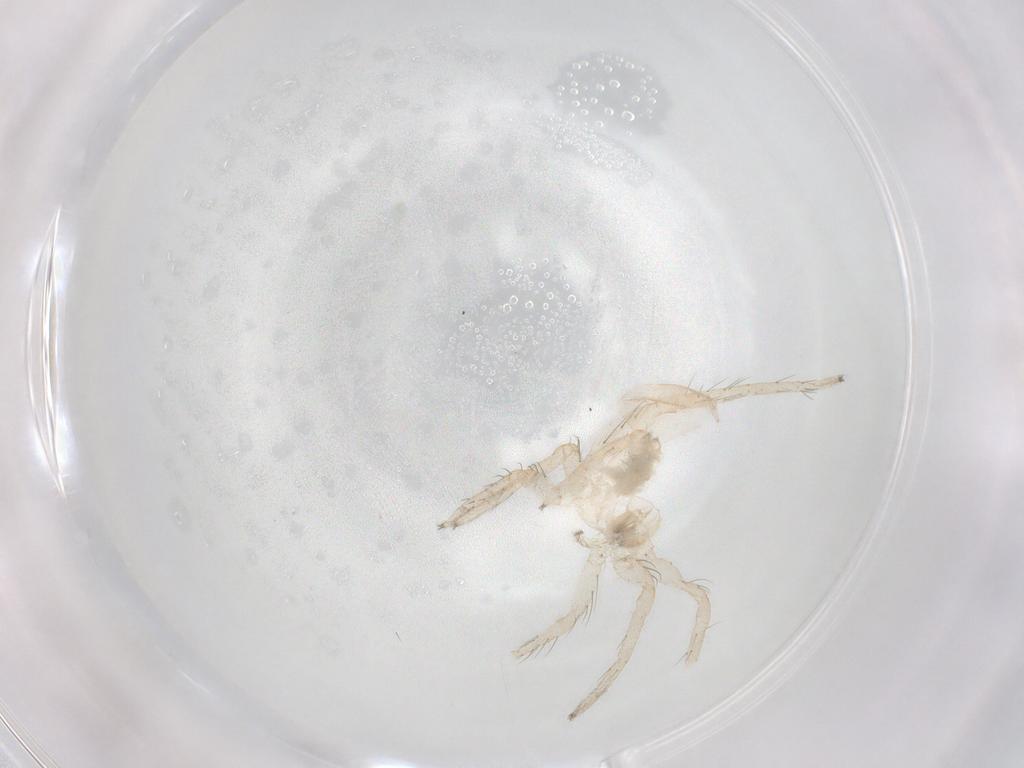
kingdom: Animalia
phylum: Arthropoda
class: Arachnida
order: Araneae
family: Anyphaenidae
